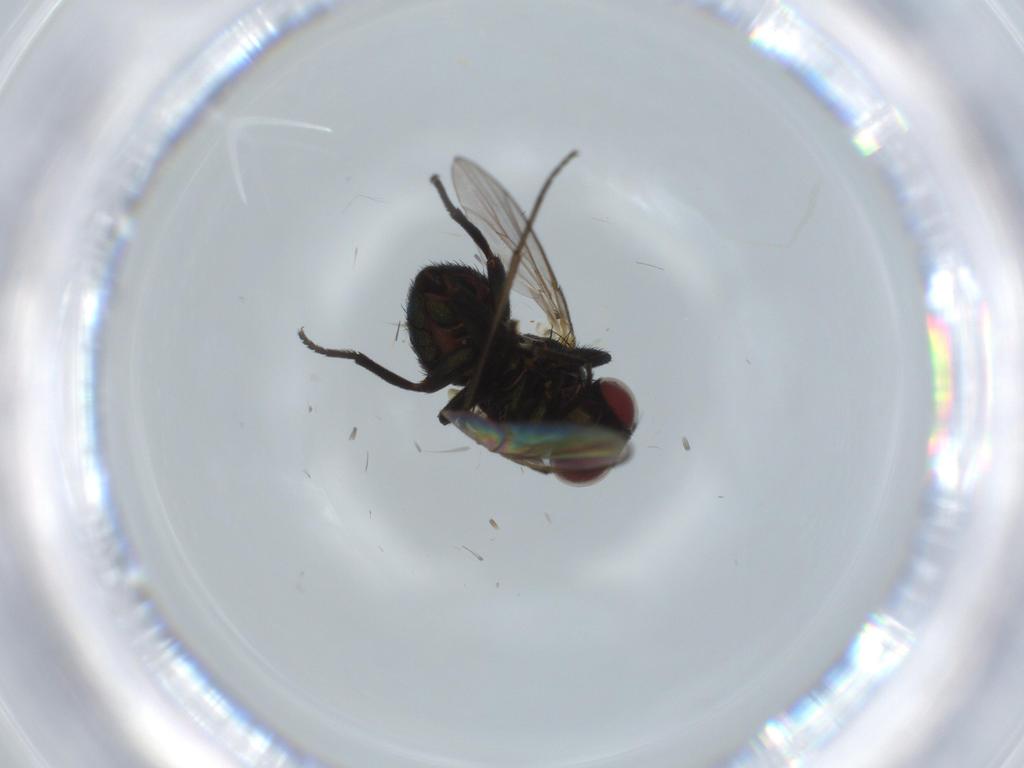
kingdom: Animalia
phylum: Arthropoda
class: Insecta
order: Diptera
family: Agromyzidae
